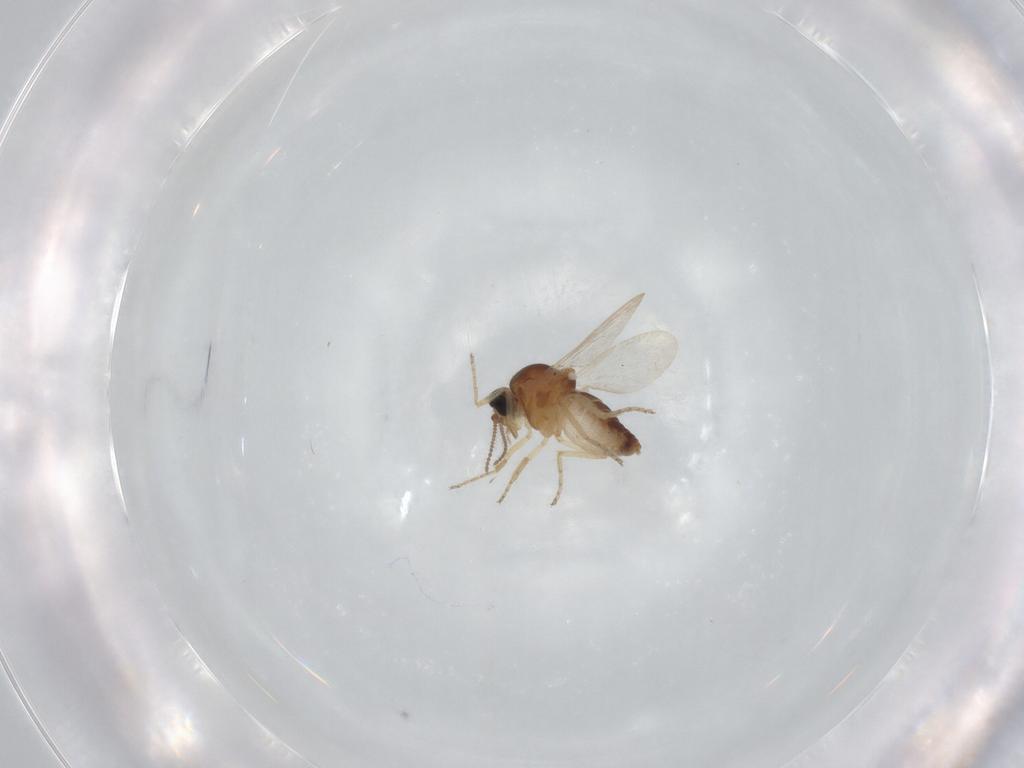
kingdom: Animalia
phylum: Arthropoda
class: Insecta
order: Diptera
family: Ceratopogonidae
